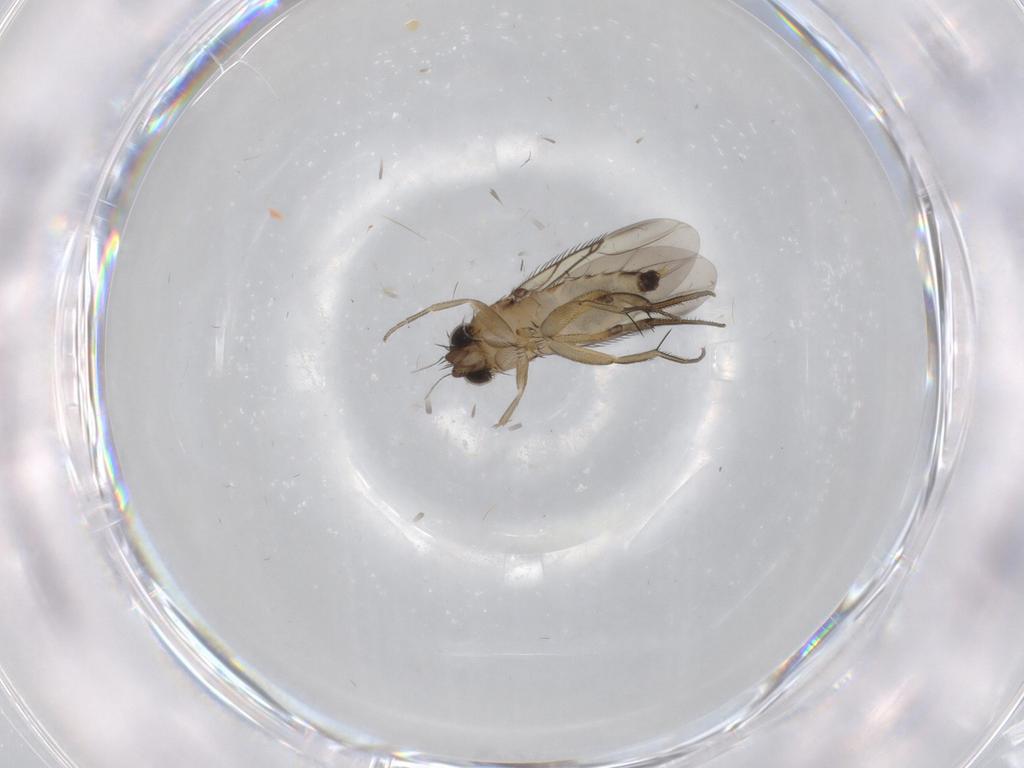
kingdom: Animalia
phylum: Arthropoda
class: Insecta
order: Diptera
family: Phoridae
